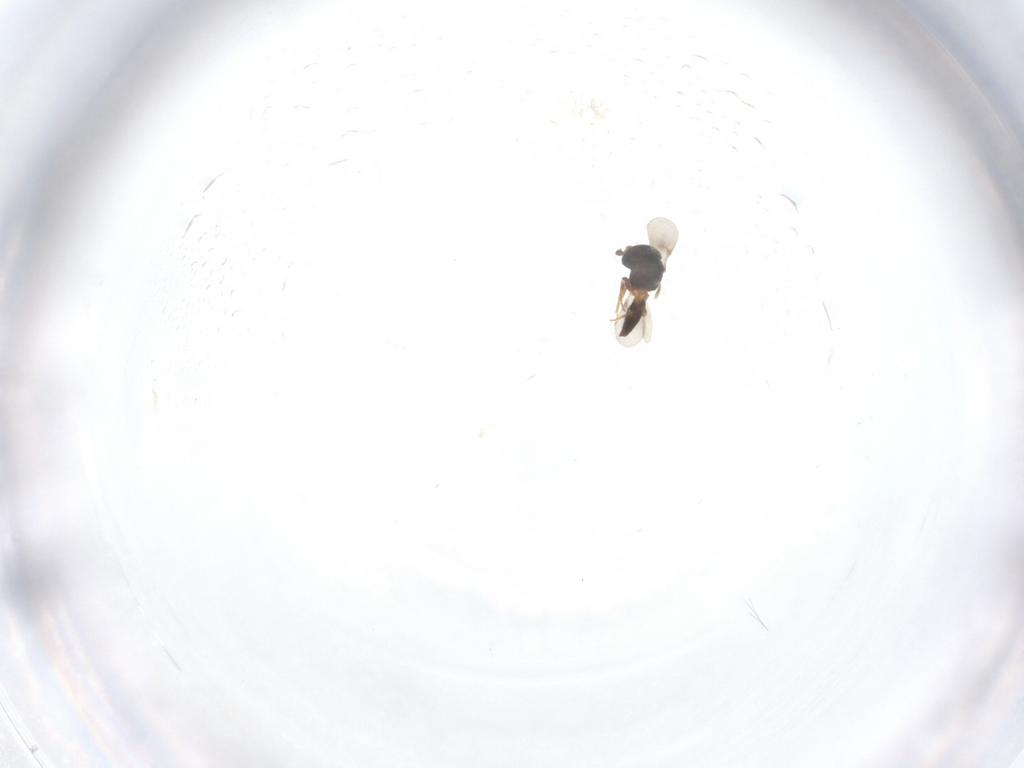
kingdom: Animalia
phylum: Arthropoda
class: Insecta
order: Hymenoptera
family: Scelionidae
